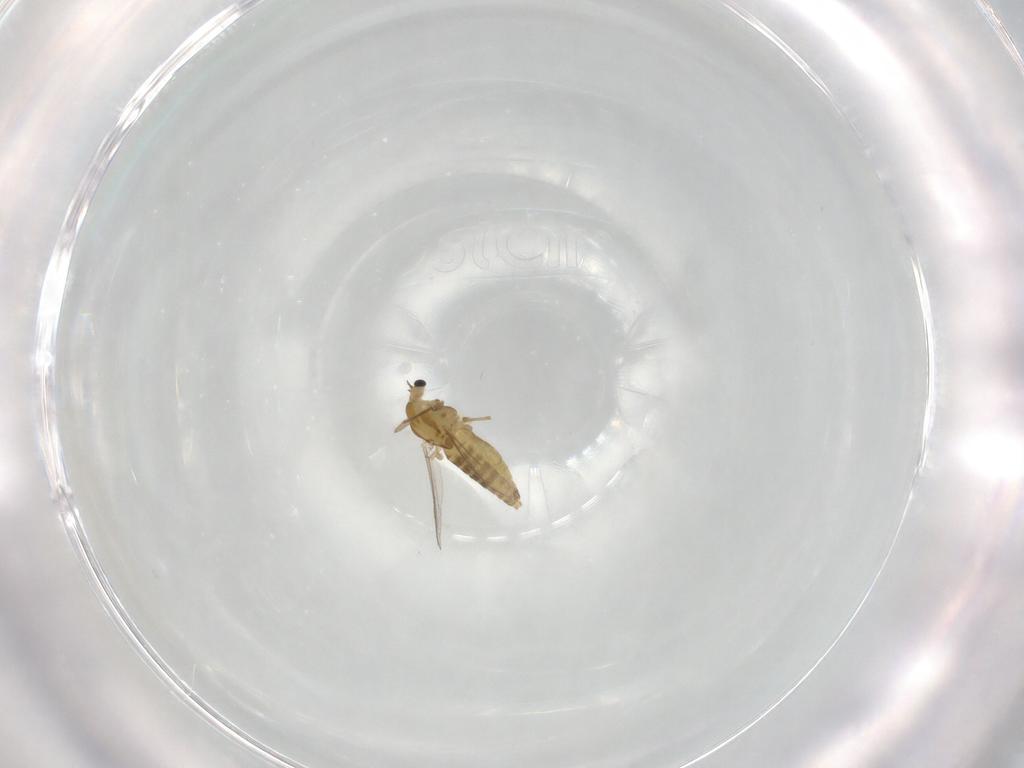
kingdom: Animalia
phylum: Arthropoda
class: Insecta
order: Diptera
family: Chironomidae
